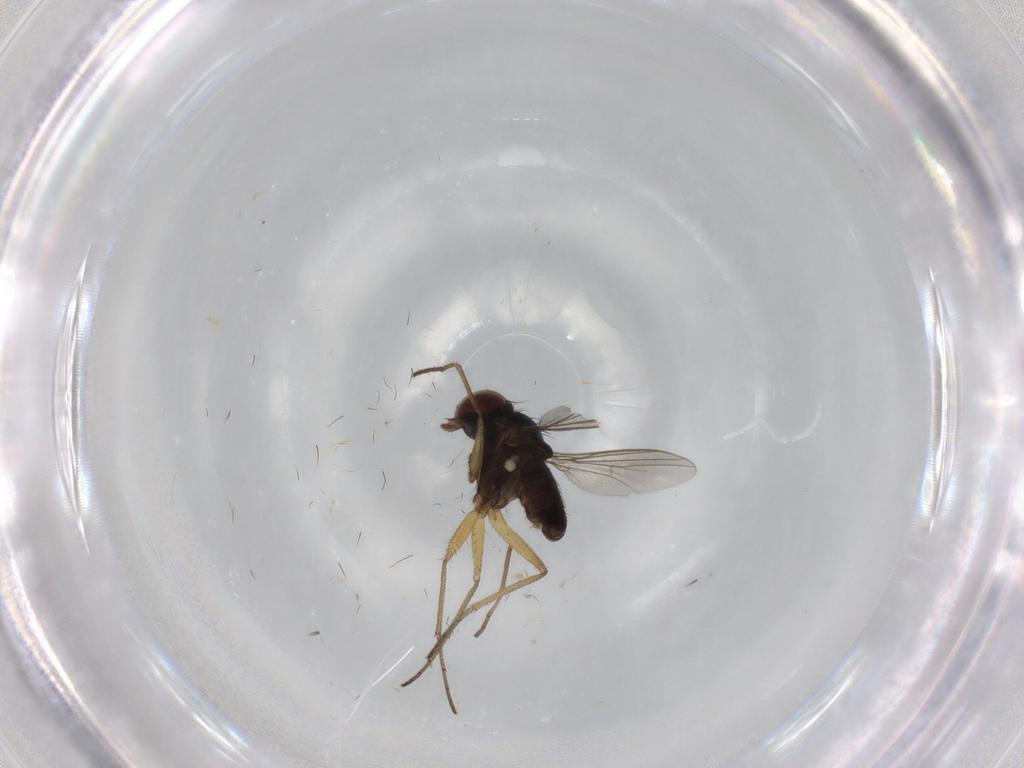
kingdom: Animalia
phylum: Arthropoda
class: Insecta
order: Diptera
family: Dolichopodidae
